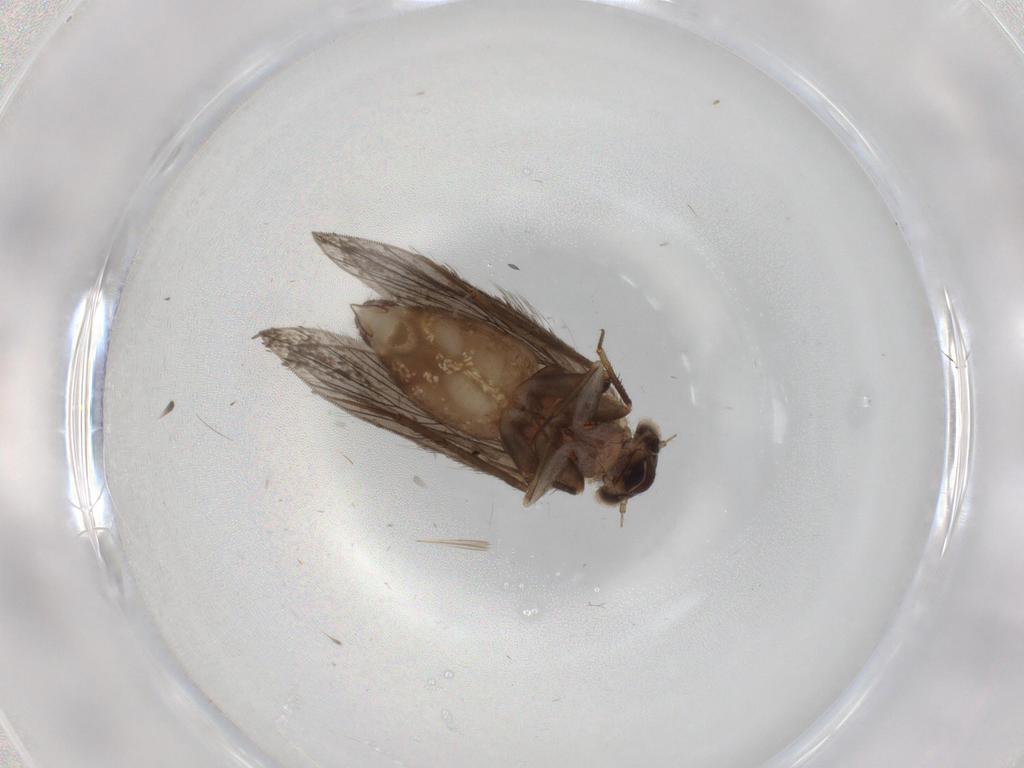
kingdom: Animalia
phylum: Arthropoda
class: Insecta
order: Psocodea
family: Lepidopsocidae
